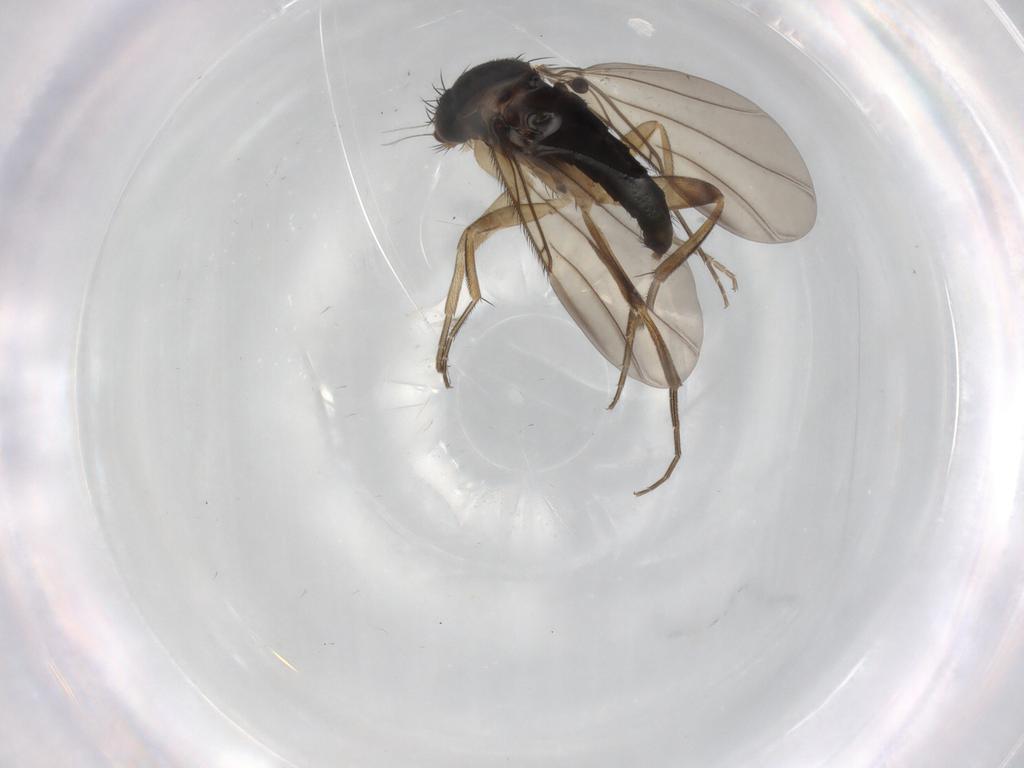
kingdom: Animalia
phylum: Arthropoda
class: Insecta
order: Diptera
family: Phoridae
